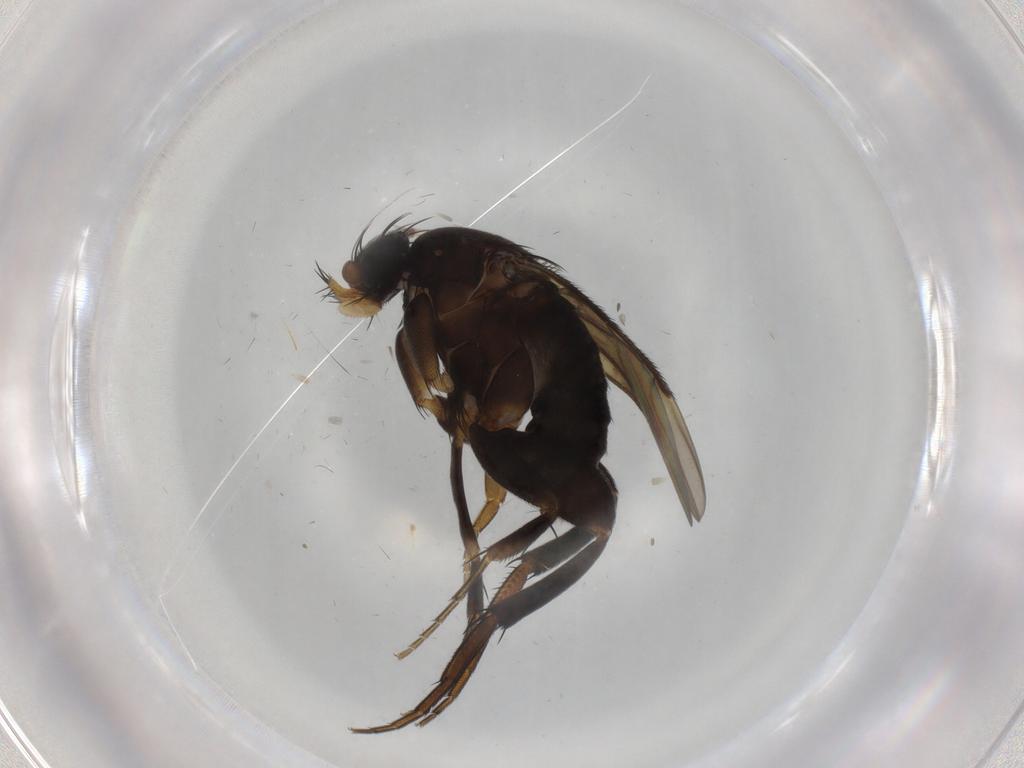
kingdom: Animalia
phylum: Arthropoda
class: Insecta
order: Diptera
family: Phoridae
